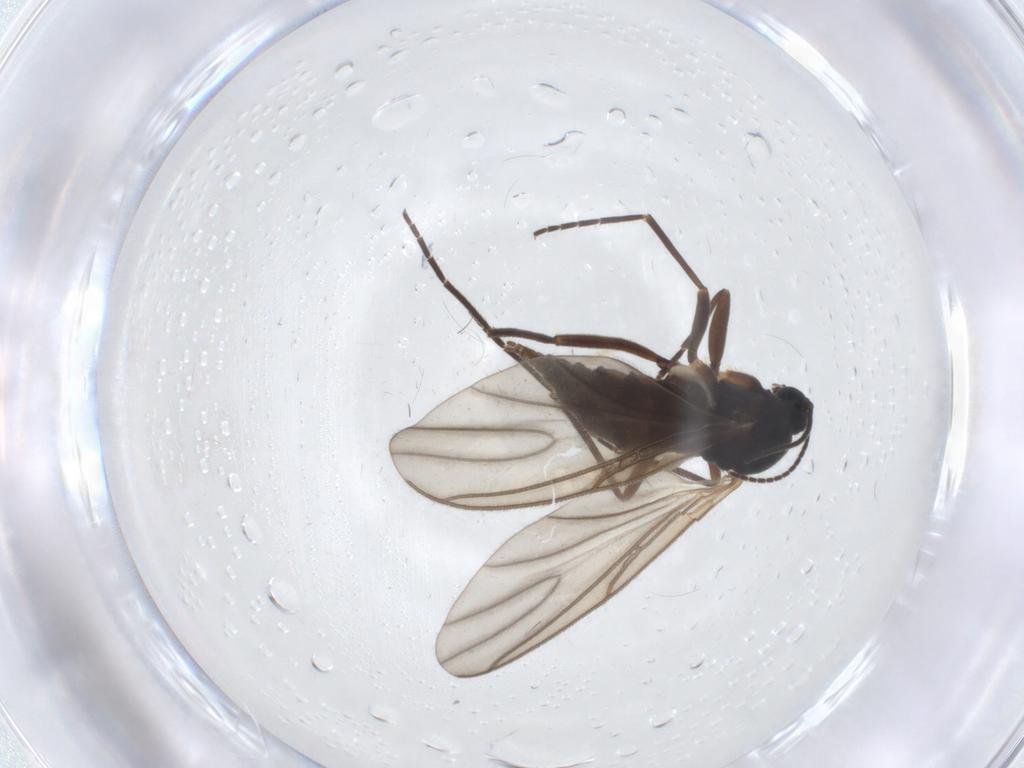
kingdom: Animalia
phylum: Arthropoda
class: Insecta
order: Diptera
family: Sciaridae
